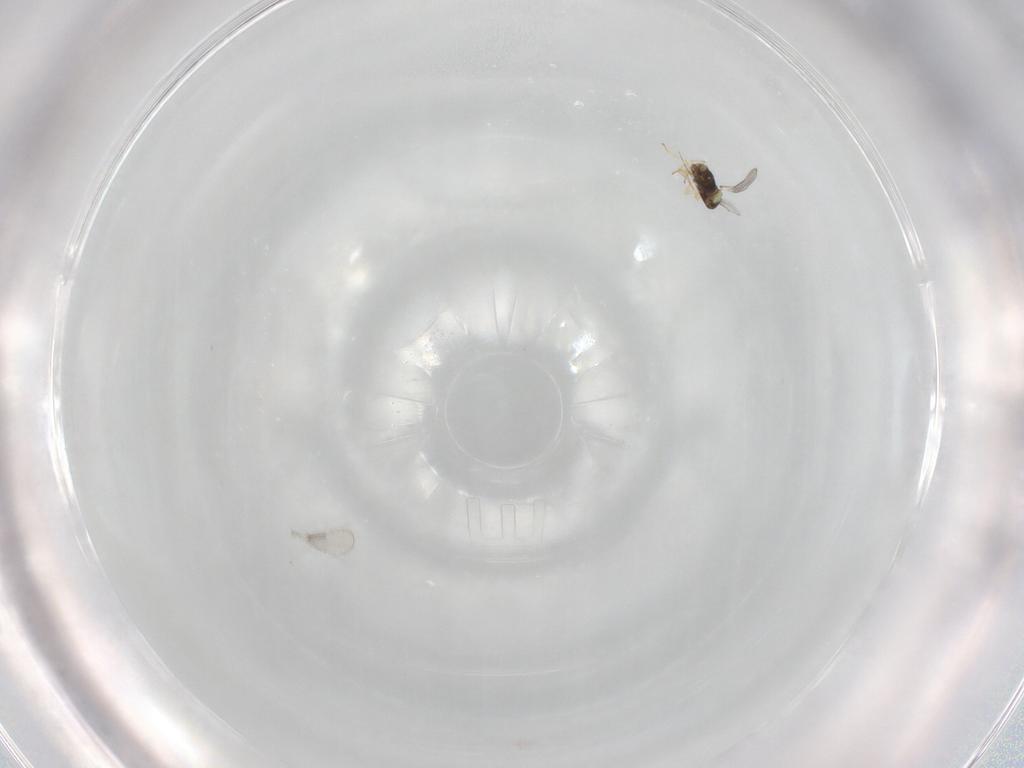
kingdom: Animalia
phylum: Arthropoda
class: Insecta
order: Hymenoptera
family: Aphelinidae
